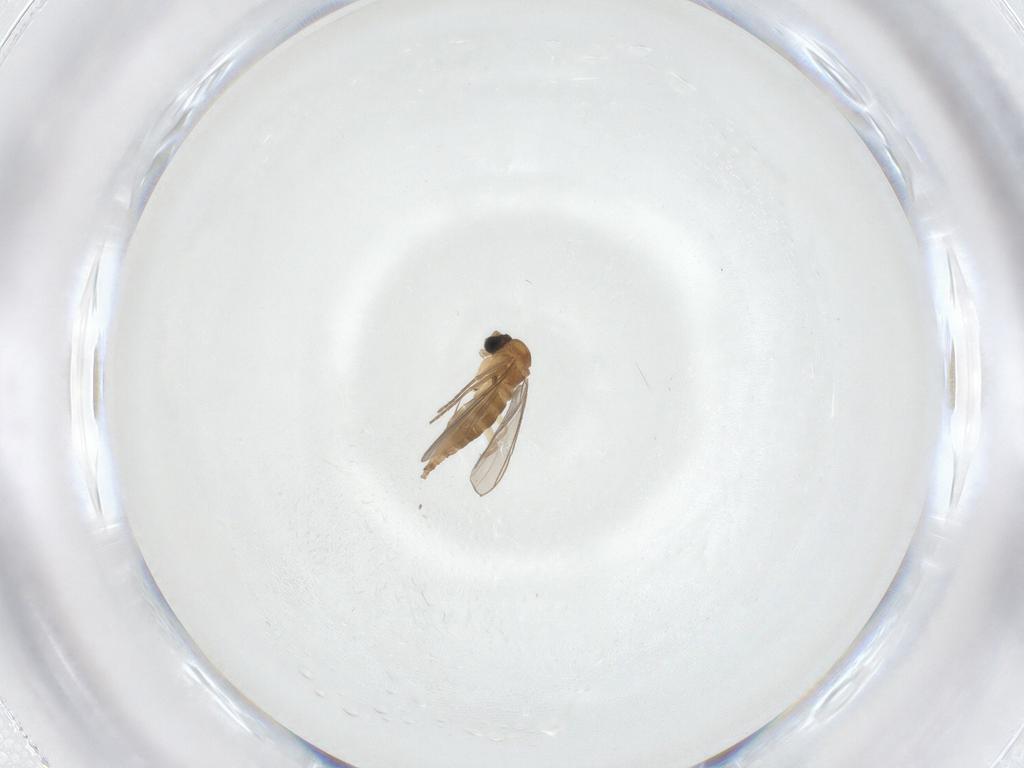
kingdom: Animalia
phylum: Arthropoda
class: Insecta
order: Diptera
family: Chironomidae
